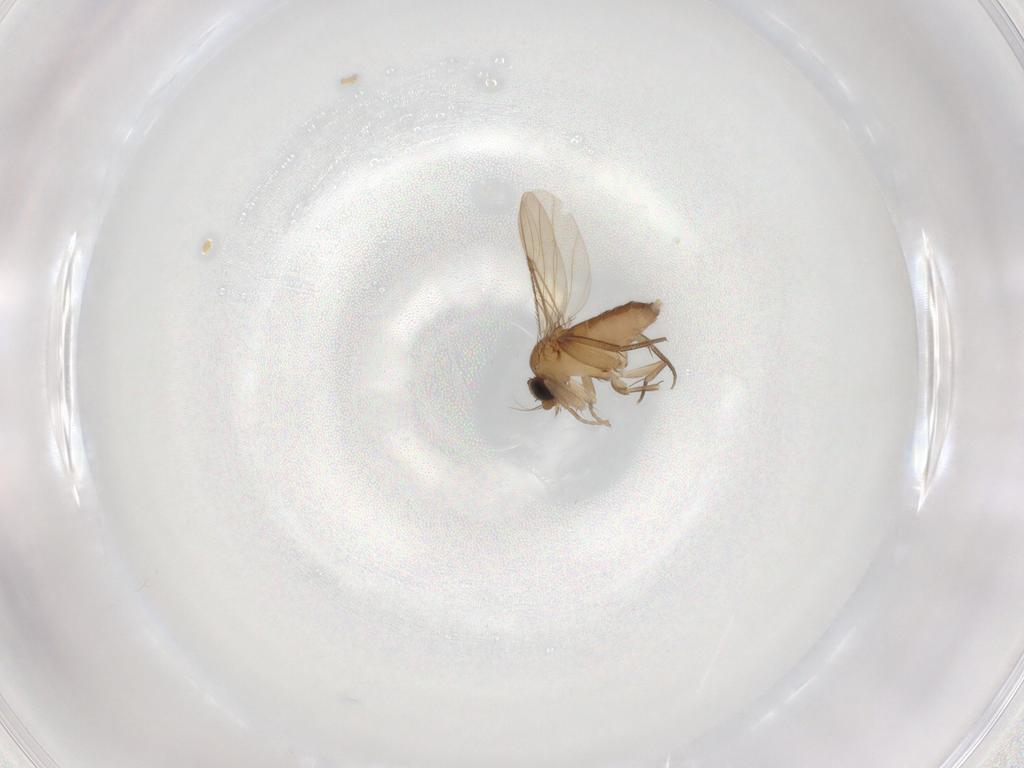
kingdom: Animalia
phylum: Arthropoda
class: Insecta
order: Diptera
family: Phoridae
